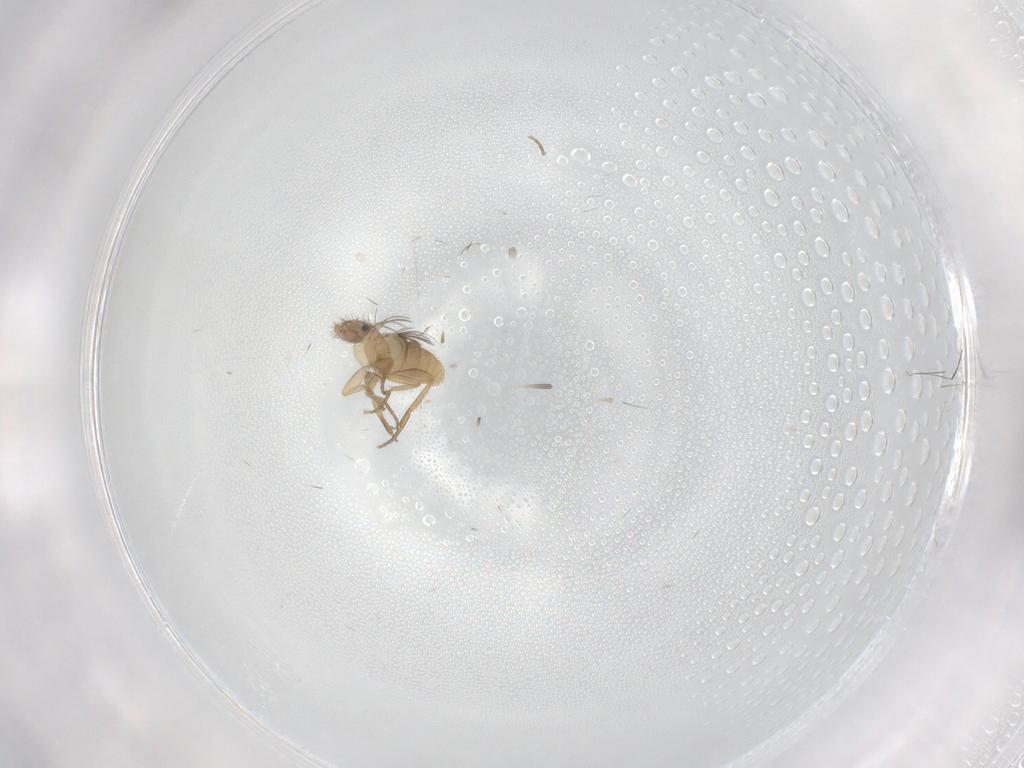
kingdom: Animalia
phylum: Arthropoda
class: Insecta
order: Diptera
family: Phoridae
